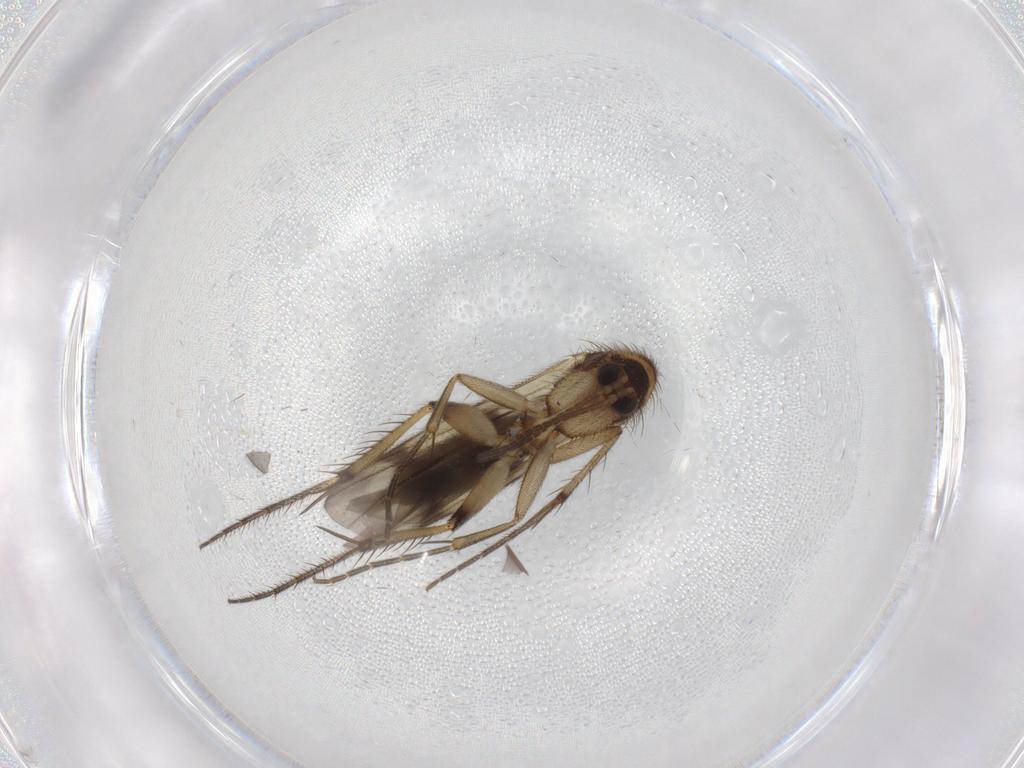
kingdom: Animalia
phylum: Arthropoda
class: Insecta
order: Diptera
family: Mycetophilidae
